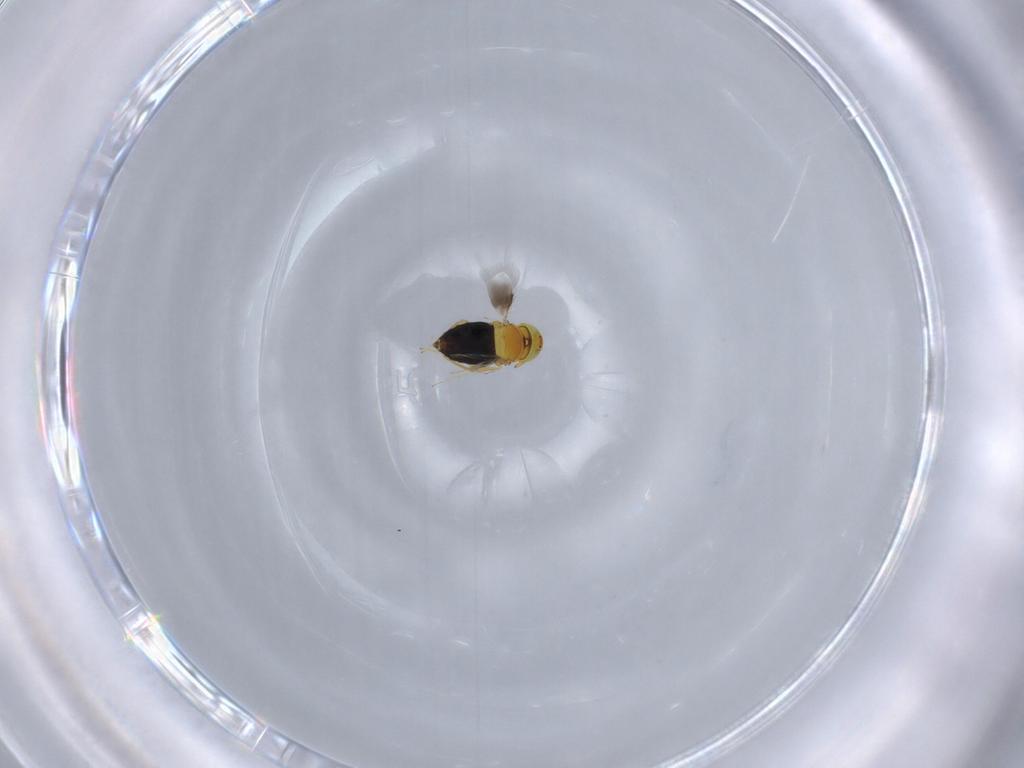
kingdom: Animalia
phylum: Arthropoda
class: Insecta
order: Hymenoptera
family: Signiphoridae
